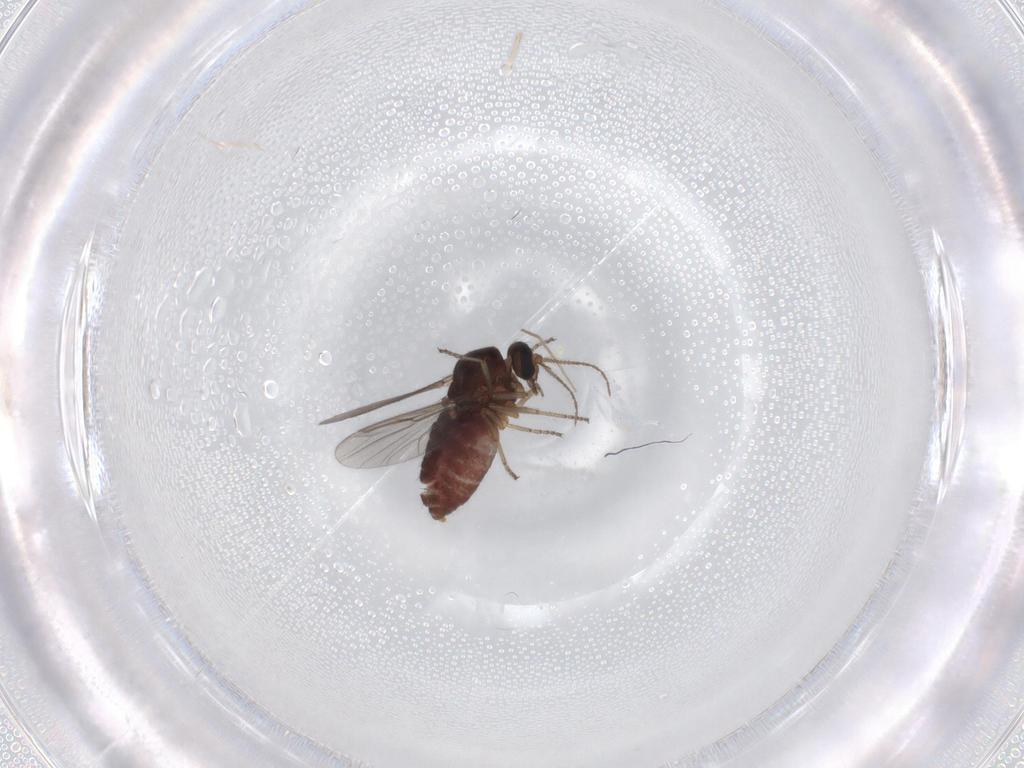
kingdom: Animalia
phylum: Arthropoda
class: Insecta
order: Diptera
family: Ceratopogonidae
